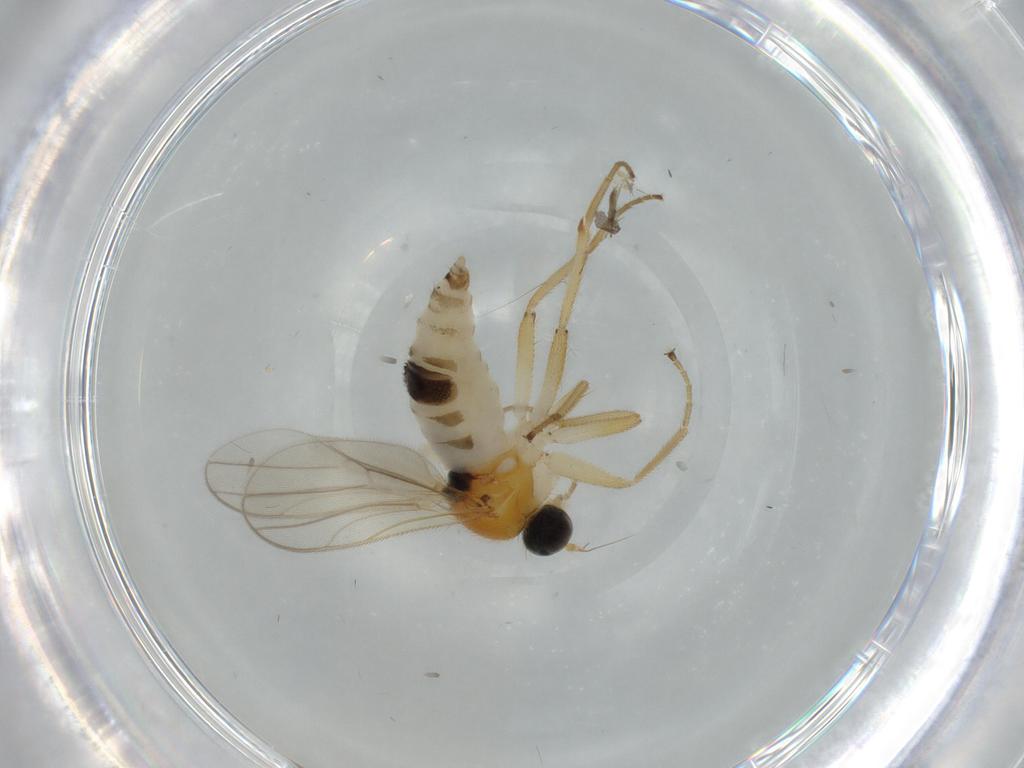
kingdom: Animalia
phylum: Arthropoda
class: Insecta
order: Diptera
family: Hybotidae
